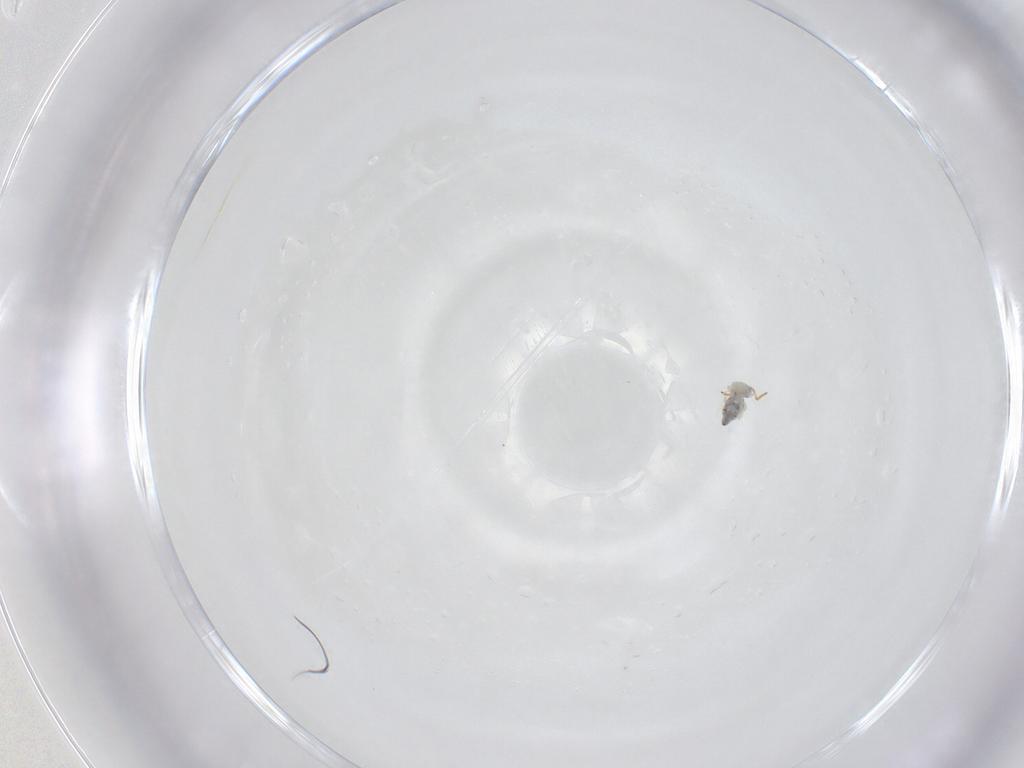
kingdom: Animalia
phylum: Arthropoda
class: Collembola
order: Symphypleona
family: Bourletiellidae
